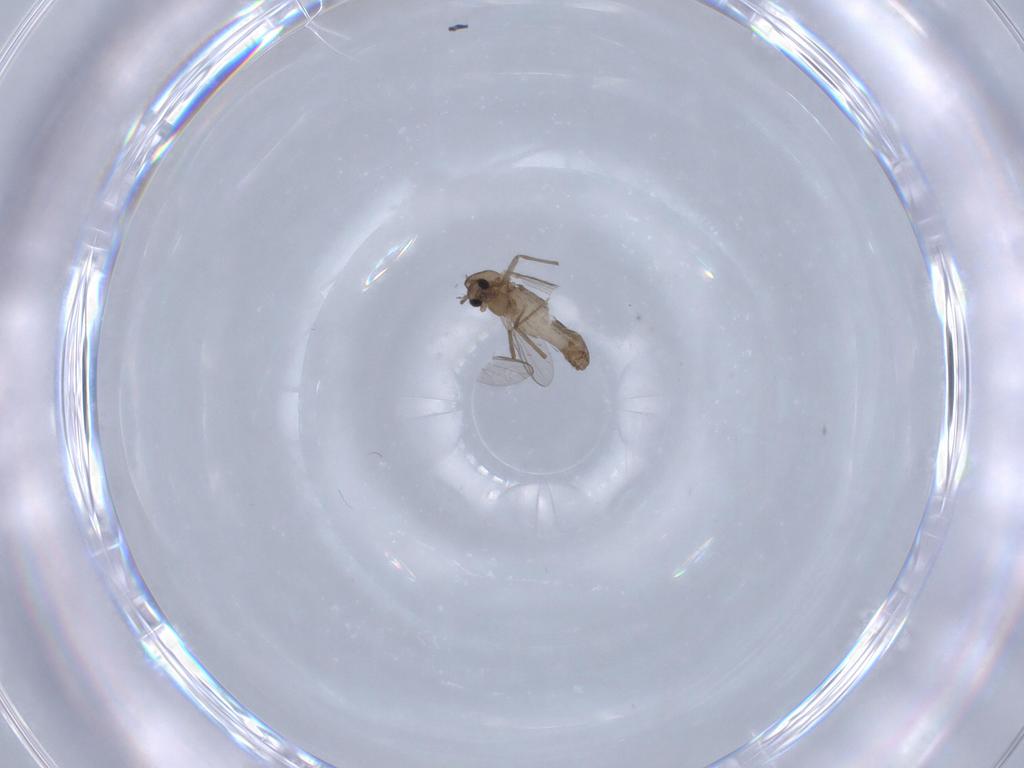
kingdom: Animalia
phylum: Arthropoda
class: Insecta
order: Diptera
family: Chironomidae
